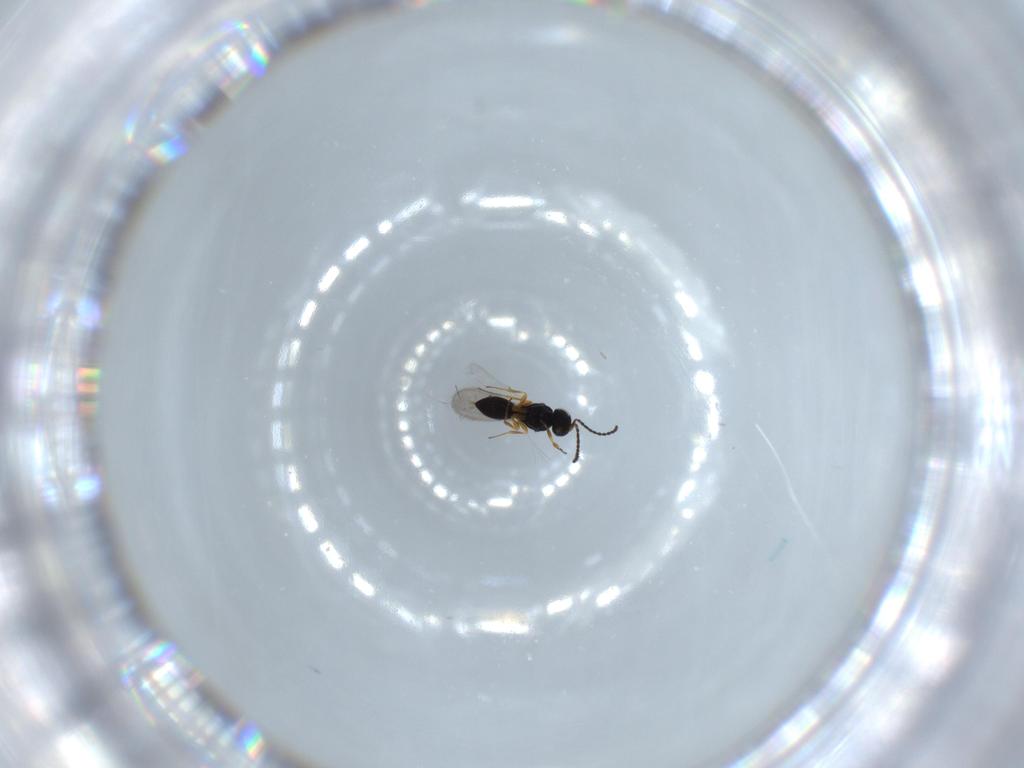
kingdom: Animalia
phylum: Arthropoda
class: Insecta
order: Hymenoptera
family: Scelionidae
